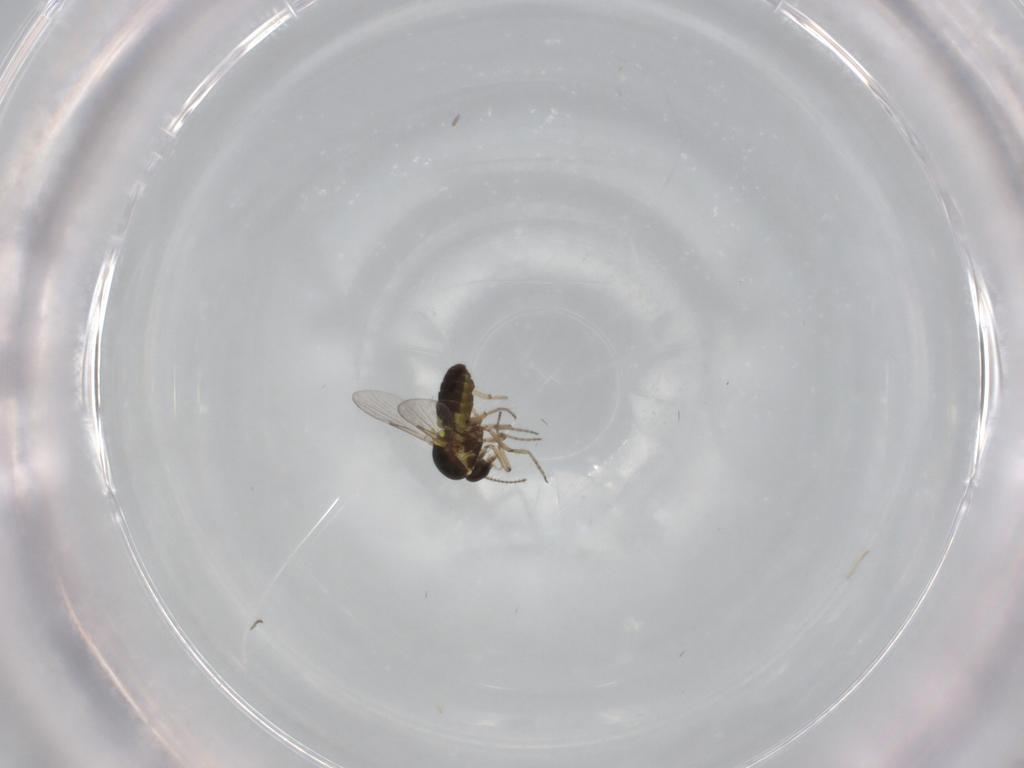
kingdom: Animalia
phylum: Arthropoda
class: Insecta
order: Diptera
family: Ceratopogonidae
